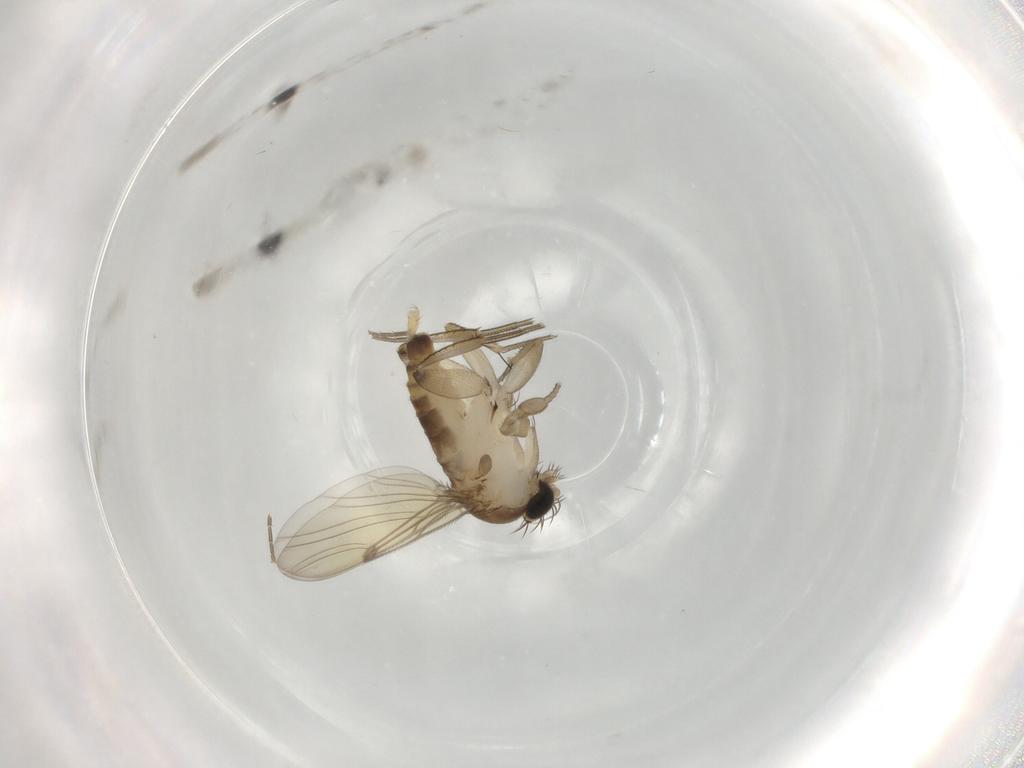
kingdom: Animalia
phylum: Arthropoda
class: Insecta
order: Diptera
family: Phoridae
